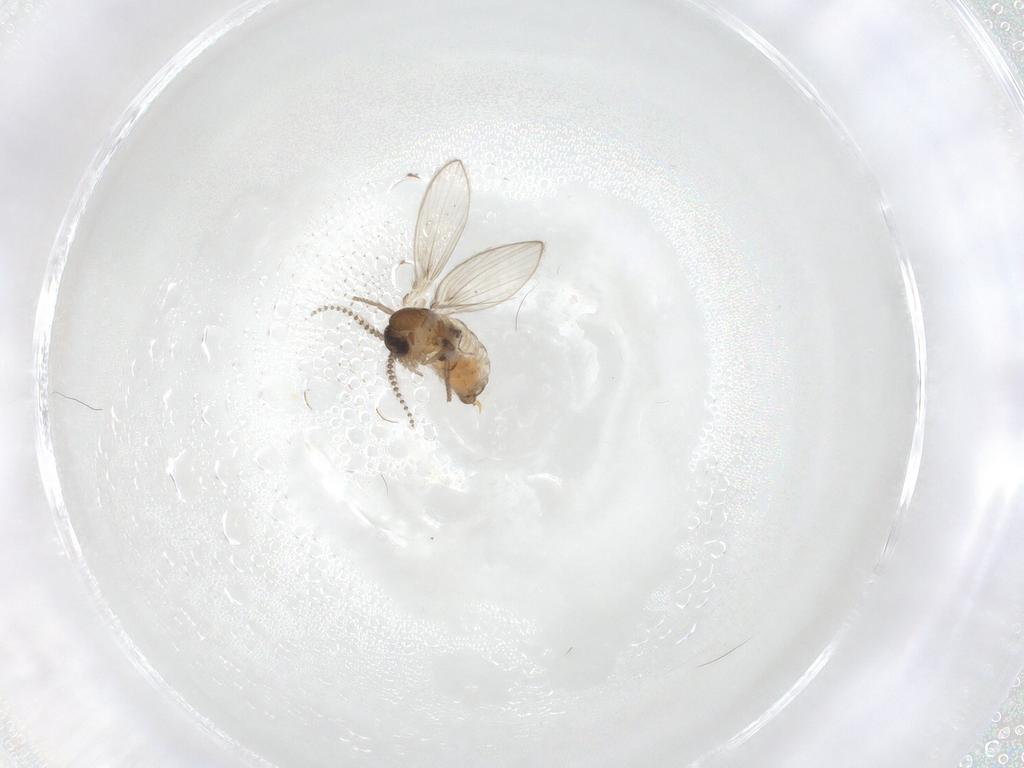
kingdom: Animalia
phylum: Arthropoda
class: Insecta
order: Diptera
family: Psychodidae
